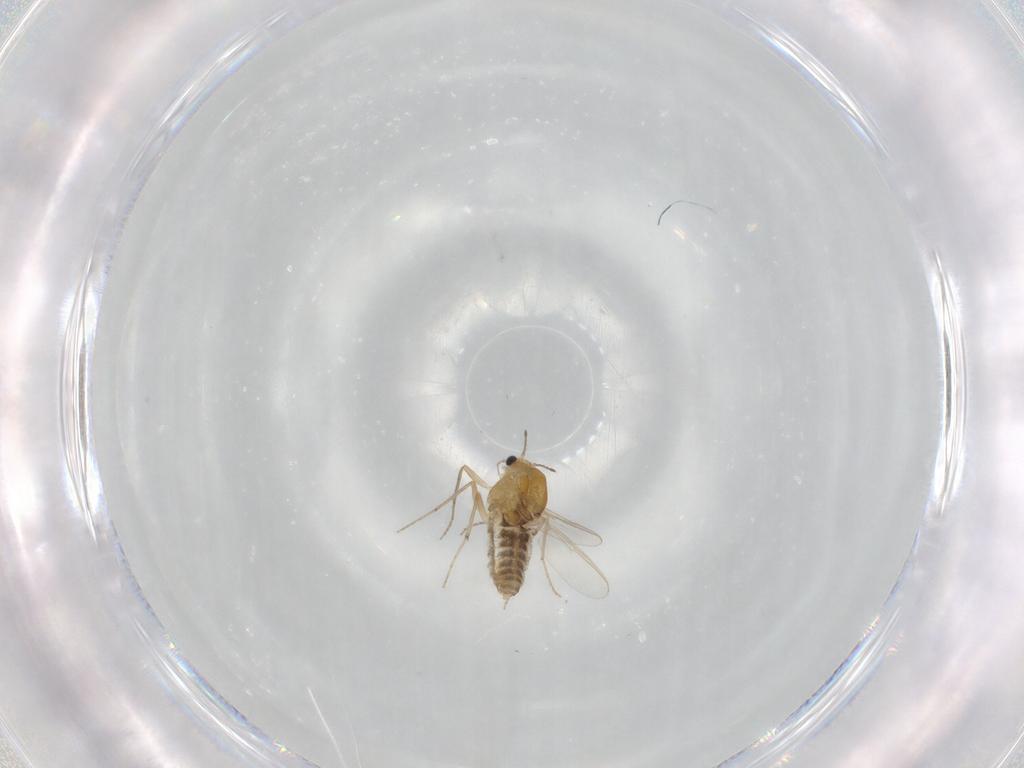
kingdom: Animalia
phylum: Arthropoda
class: Insecta
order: Diptera
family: Chironomidae
